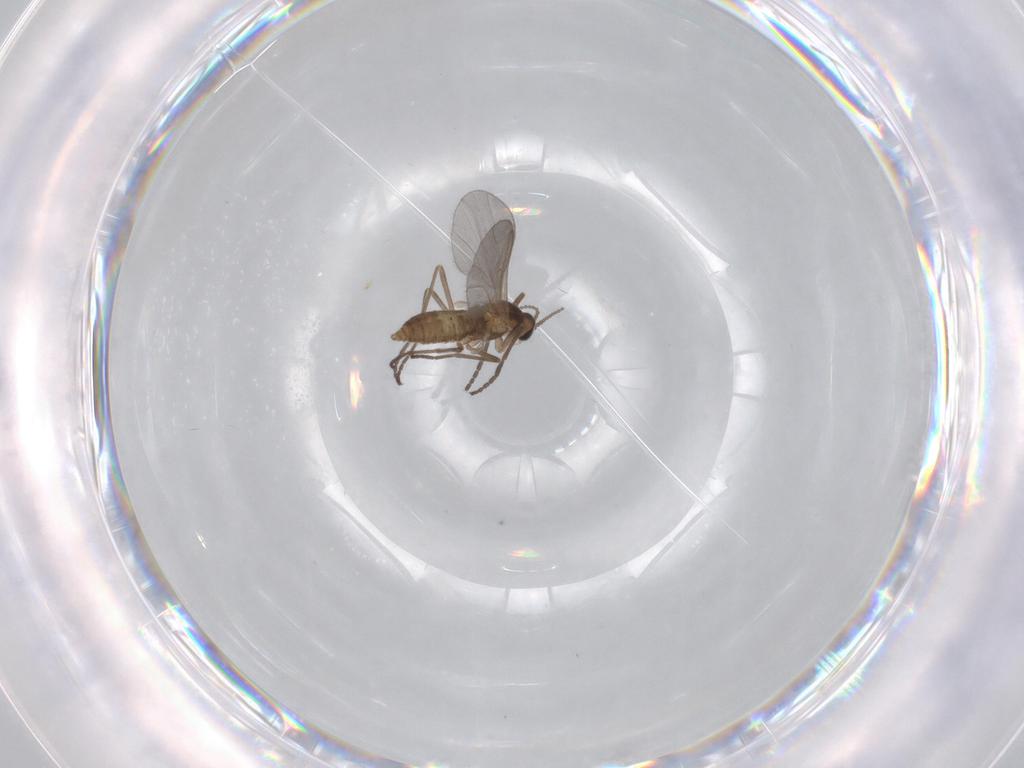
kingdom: Animalia
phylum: Arthropoda
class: Insecta
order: Diptera
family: Cecidomyiidae
